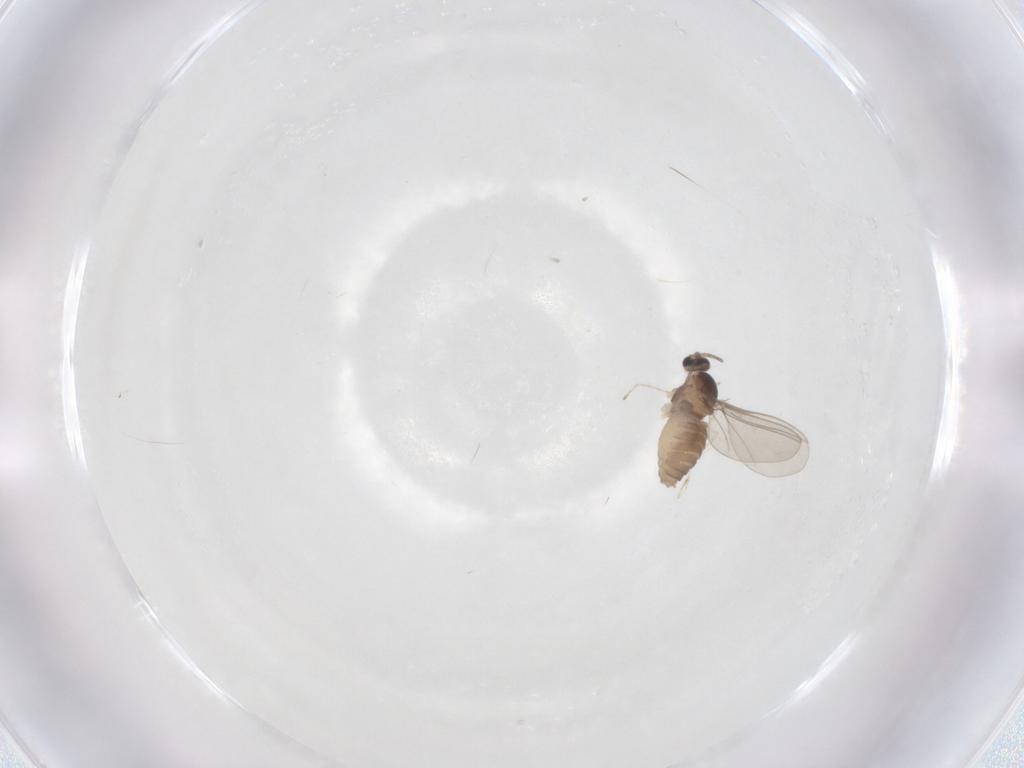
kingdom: Animalia
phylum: Arthropoda
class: Insecta
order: Diptera
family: Cecidomyiidae
